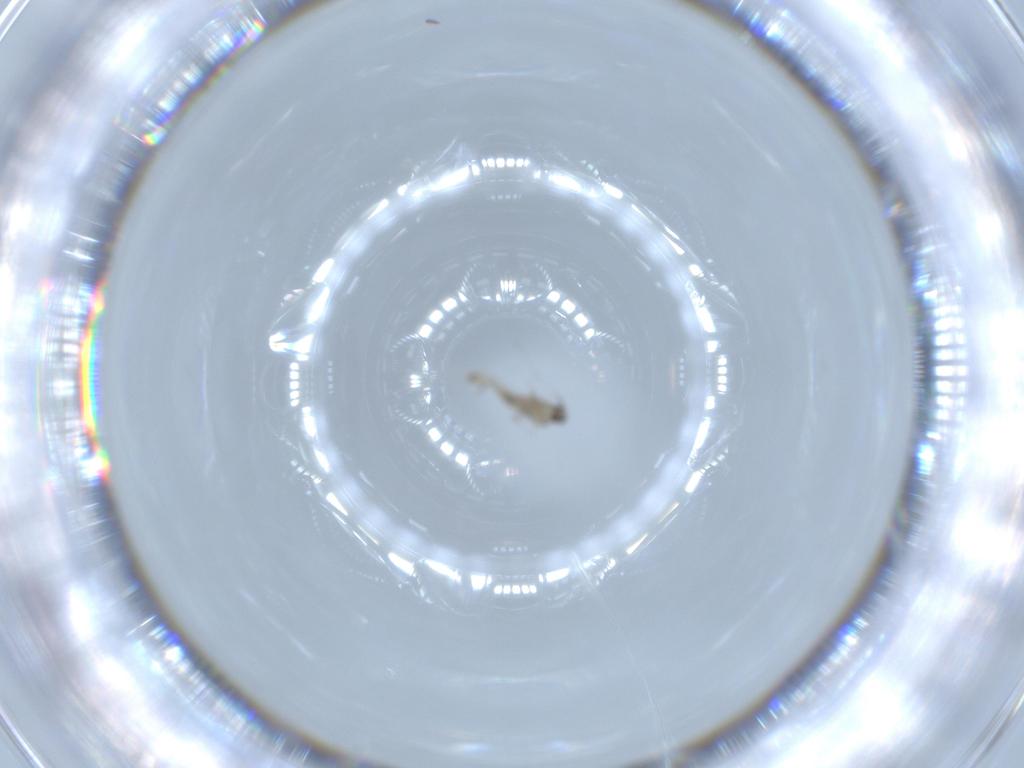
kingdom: Animalia
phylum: Arthropoda
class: Insecta
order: Diptera
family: Cecidomyiidae
